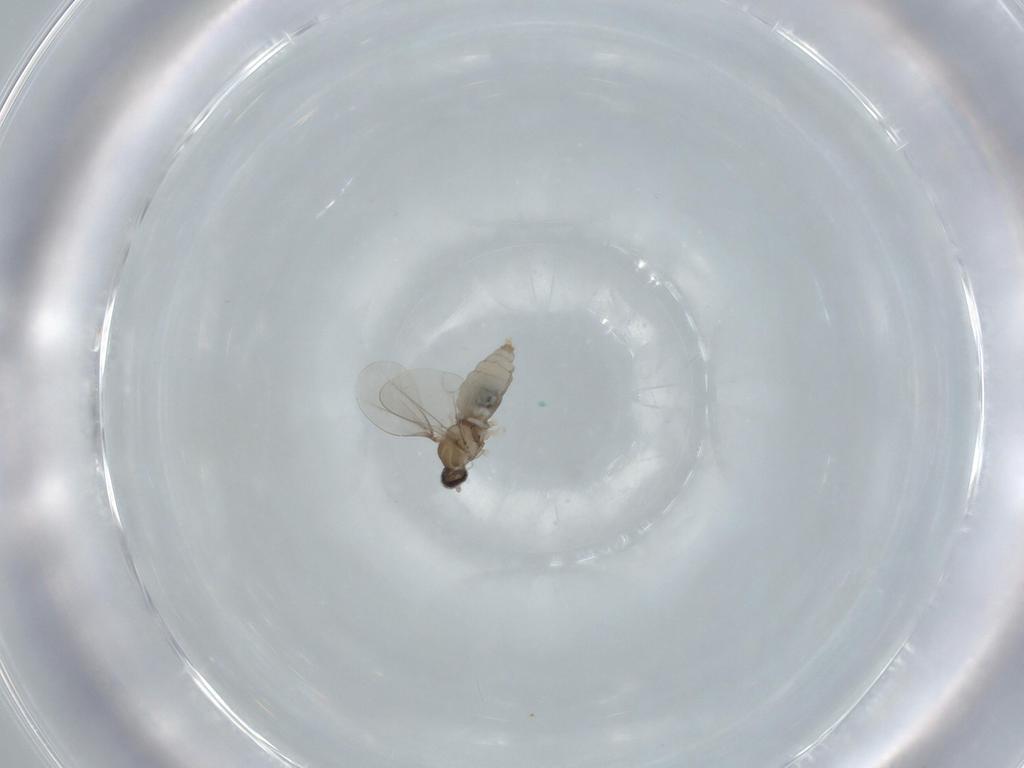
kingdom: Animalia
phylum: Arthropoda
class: Insecta
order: Diptera
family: Cecidomyiidae
